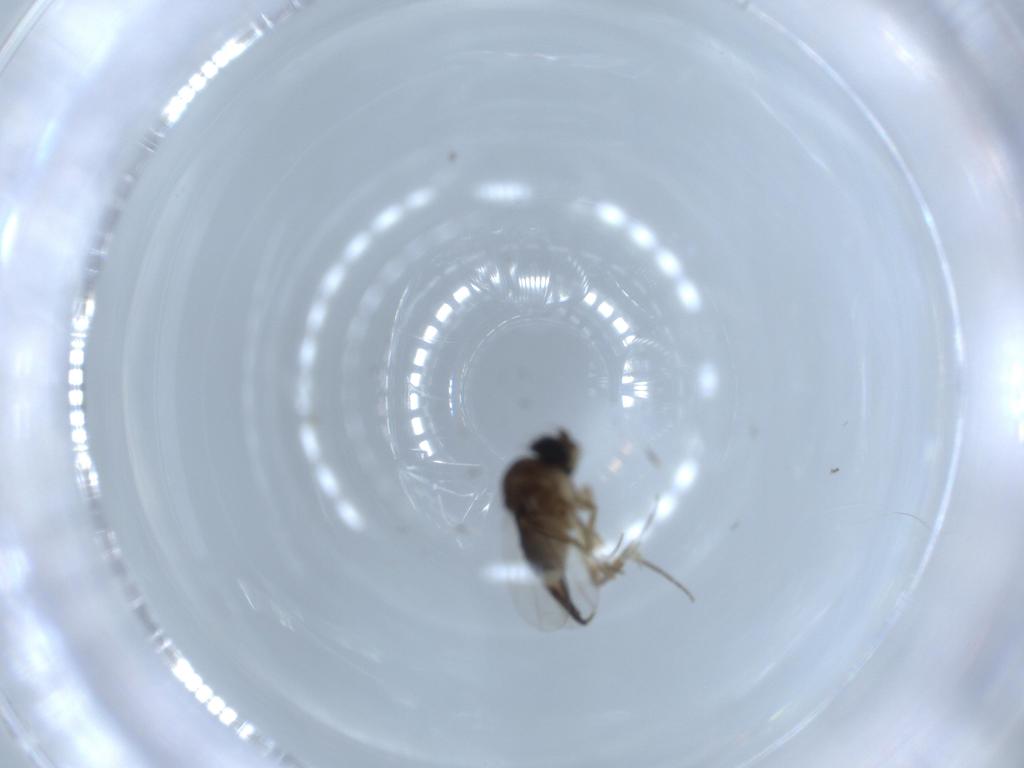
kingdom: Animalia
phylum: Arthropoda
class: Insecta
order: Diptera
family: Phoridae
